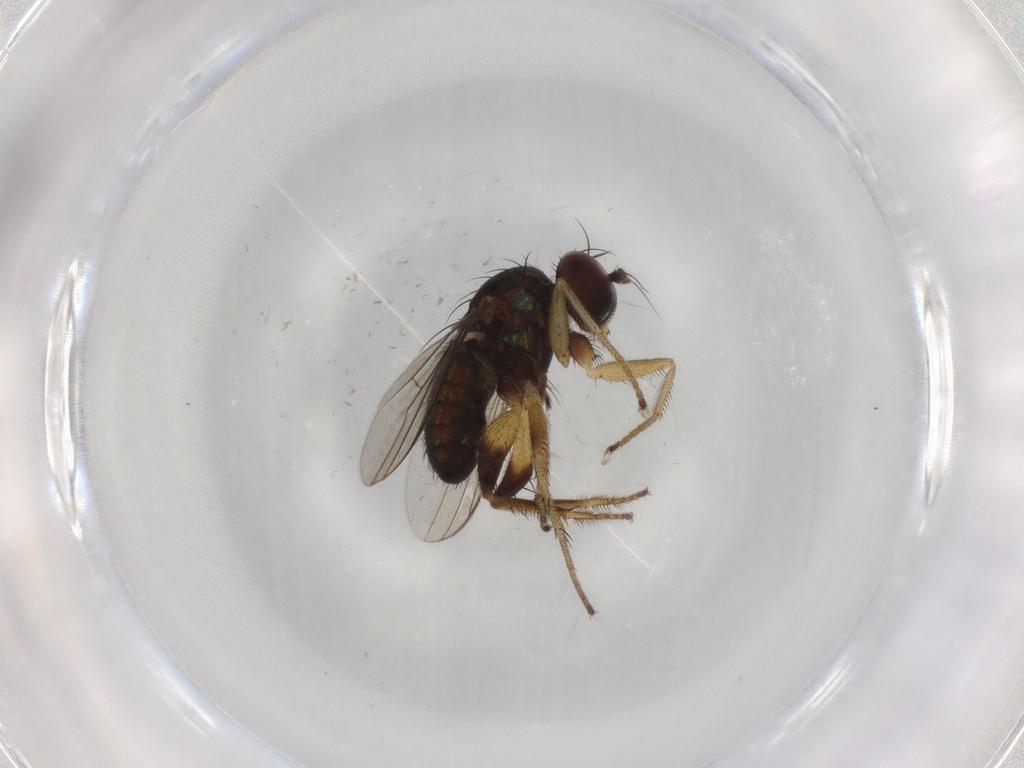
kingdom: Animalia
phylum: Arthropoda
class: Insecta
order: Diptera
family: Dolichopodidae
